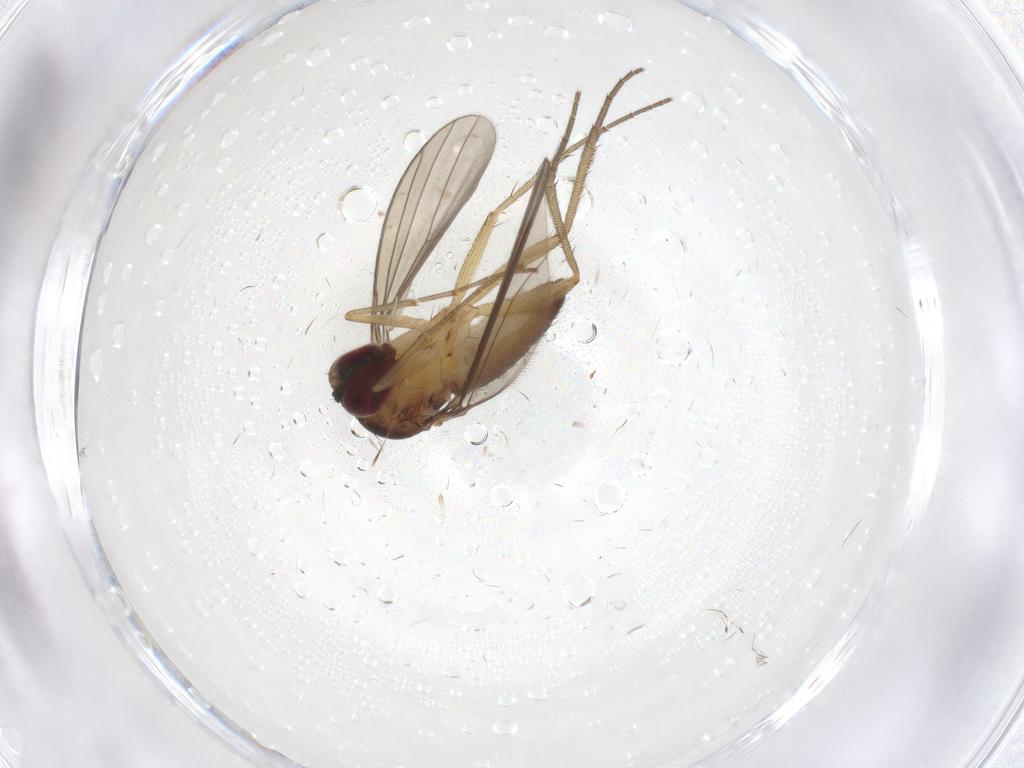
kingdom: Animalia
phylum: Arthropoda
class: Insecta
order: Diptera
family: Dolichopodidae
